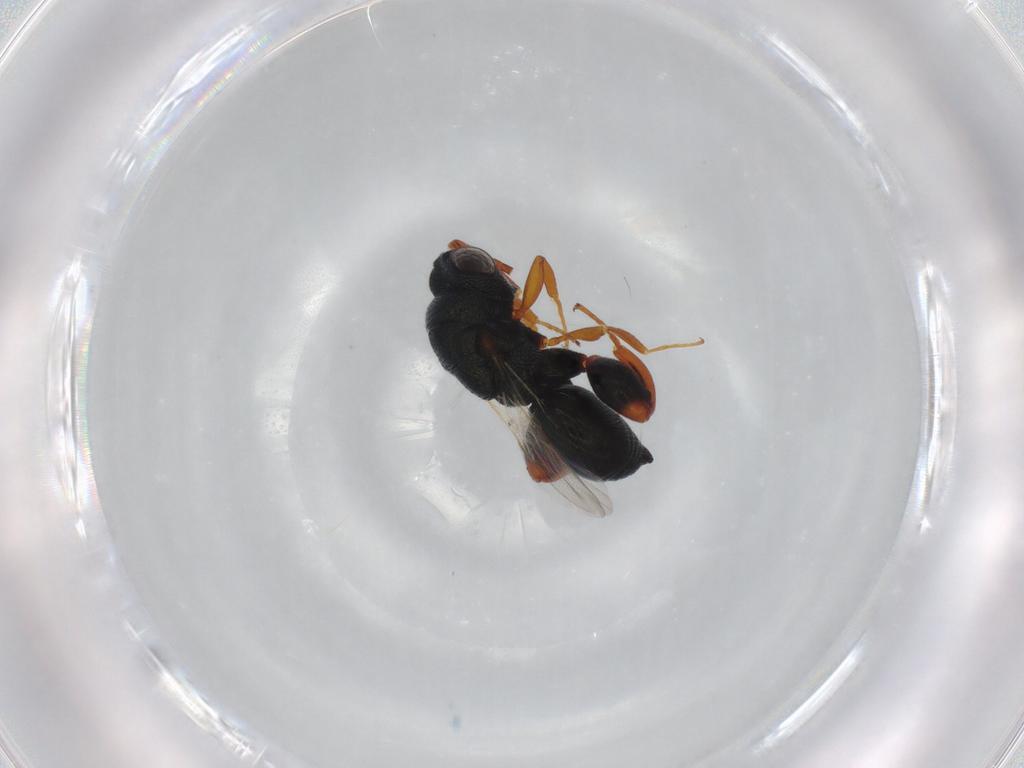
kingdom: Animalia
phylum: Arthropoda
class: Insecta
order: Hymenoptera
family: Chalcididae
